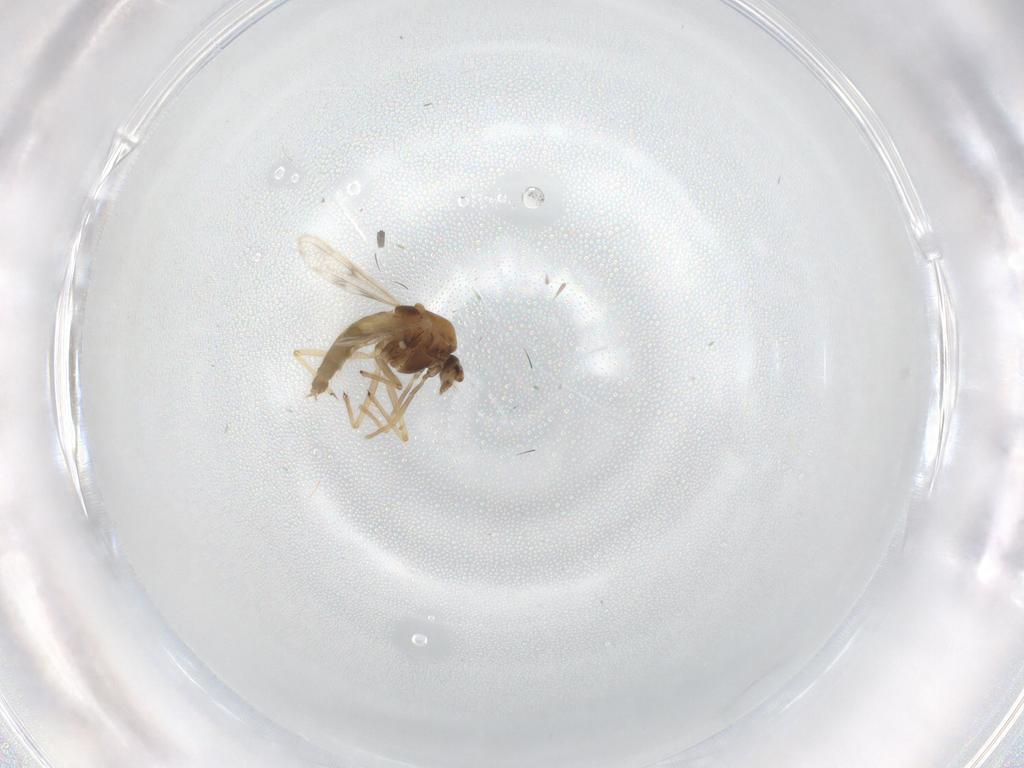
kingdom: Animalia
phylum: Arthropoda
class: Insecta
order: Diptera
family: Cecidomyiidae
